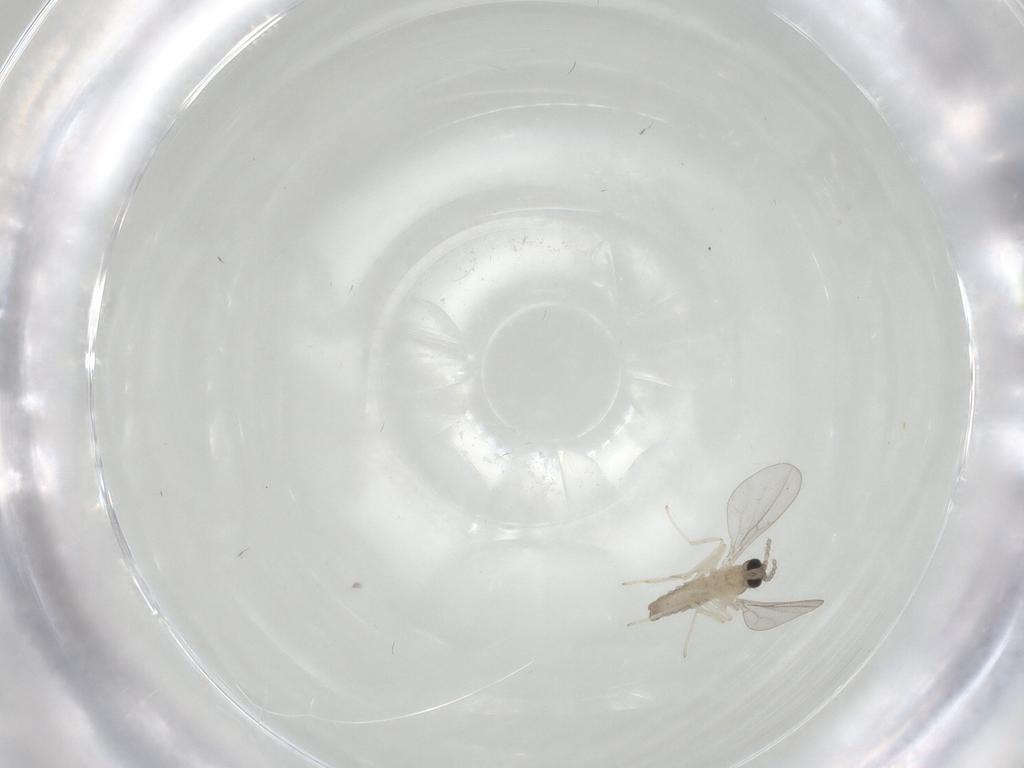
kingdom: Animalia
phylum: Arthropoda
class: Insecta
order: Diptera
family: Cecidomyiidae
